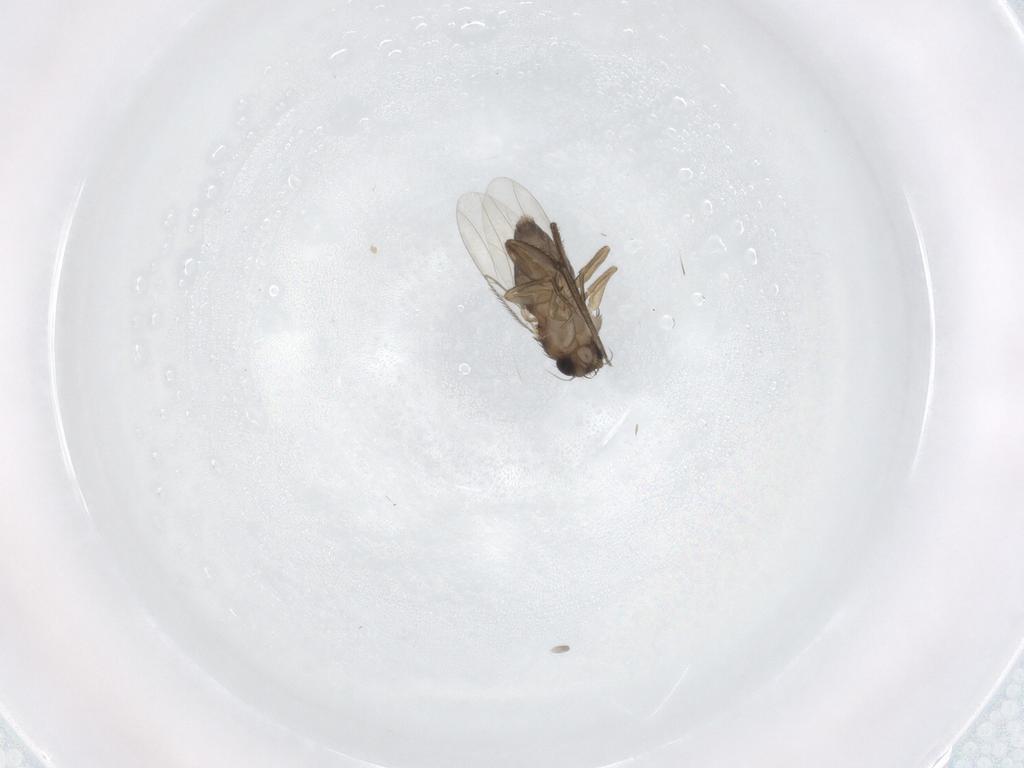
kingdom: Animalia
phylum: Arthropoda
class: Insecta
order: Diptera
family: Phoridae
